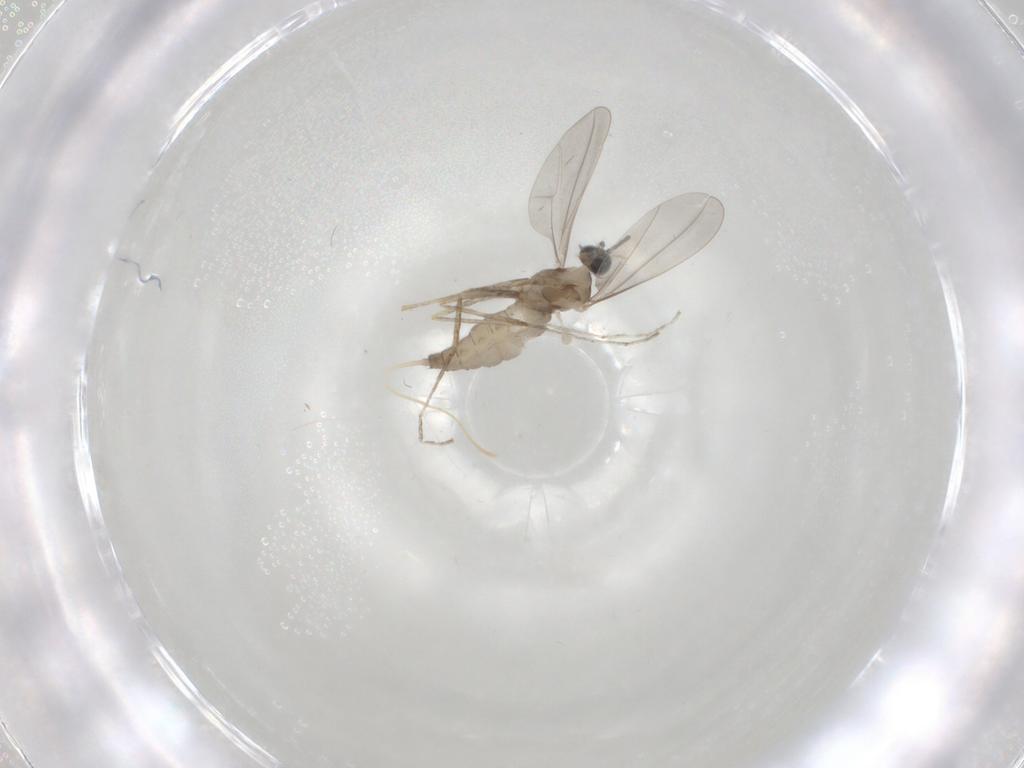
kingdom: Animalia
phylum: Arthropoda
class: Insecta
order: Diptera
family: Cecidomyiidae
